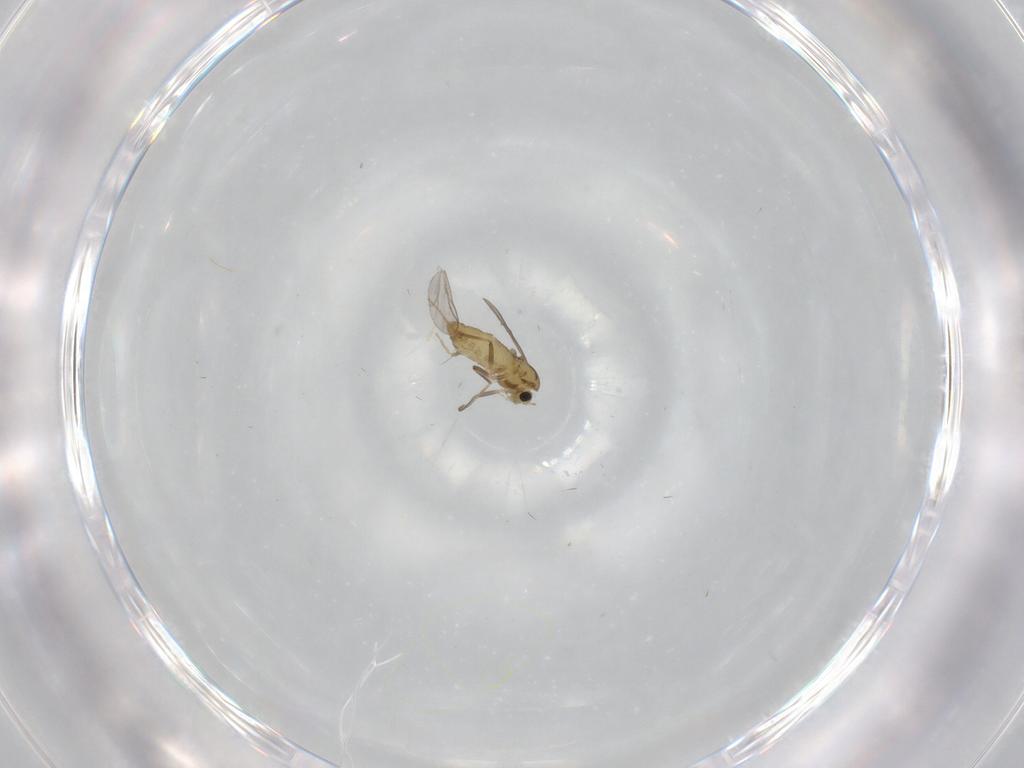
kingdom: Animalia
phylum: Arthropoda
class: Insecta
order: Diptera
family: Chironomidae
